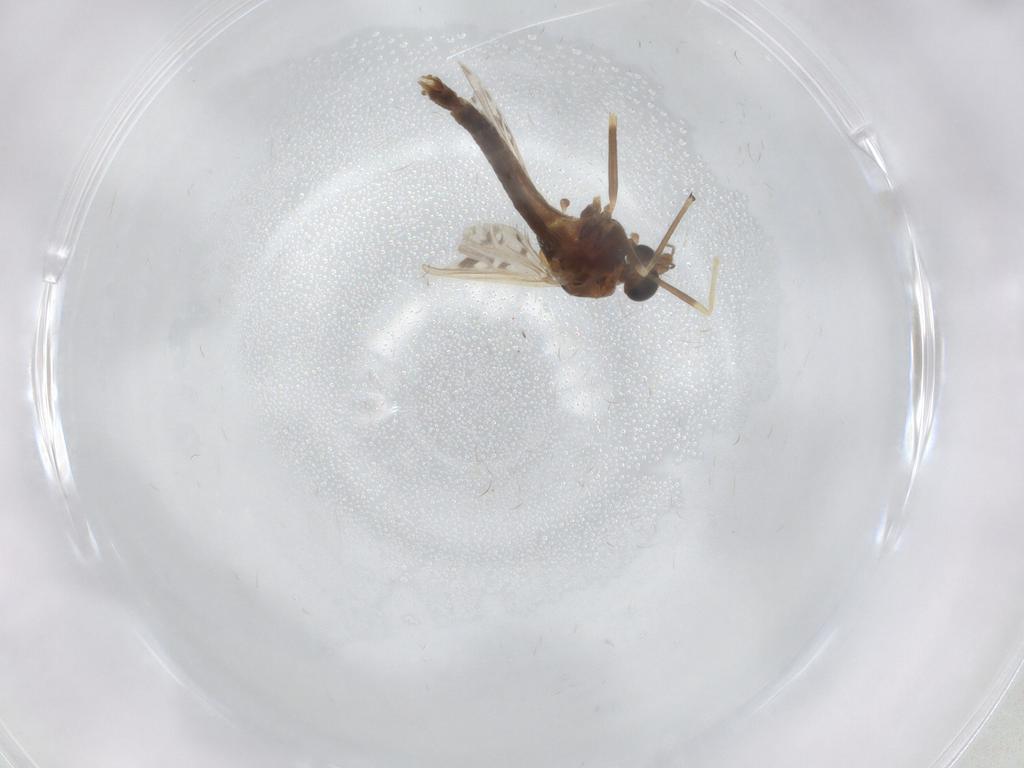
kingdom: Animalia
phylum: Arthropoda
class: Insecta
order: Diptera
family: Chironomidae
